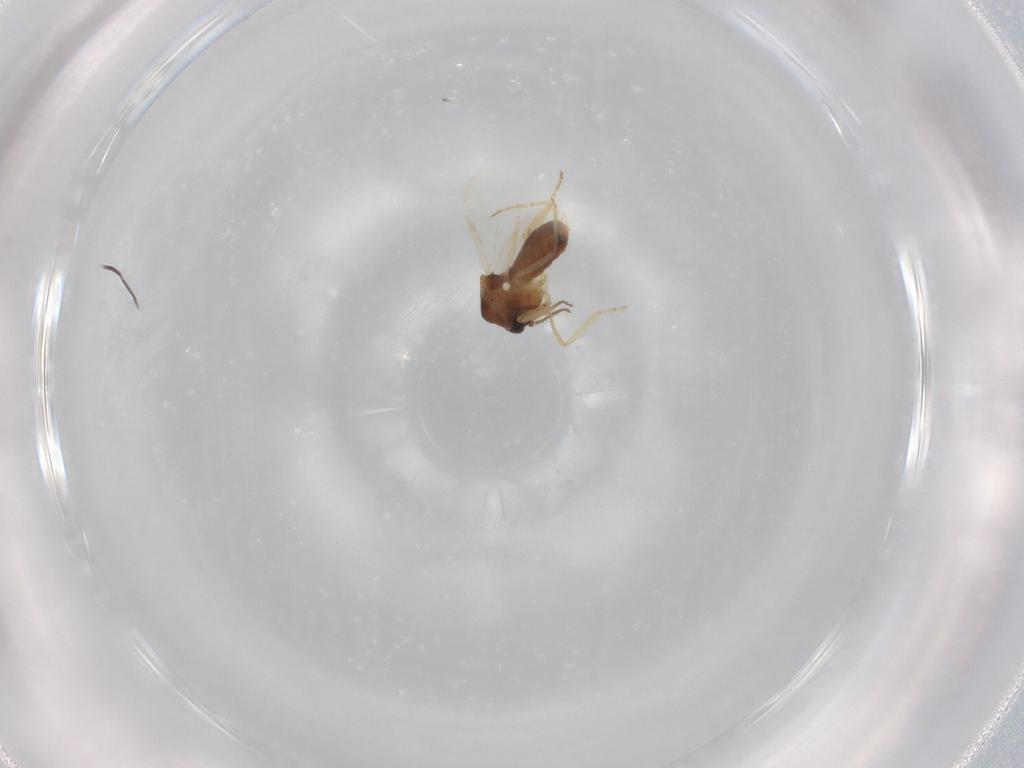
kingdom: Animalia
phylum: Arthropoda
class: Insecta
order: Diptera
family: Ceratopogonidae
